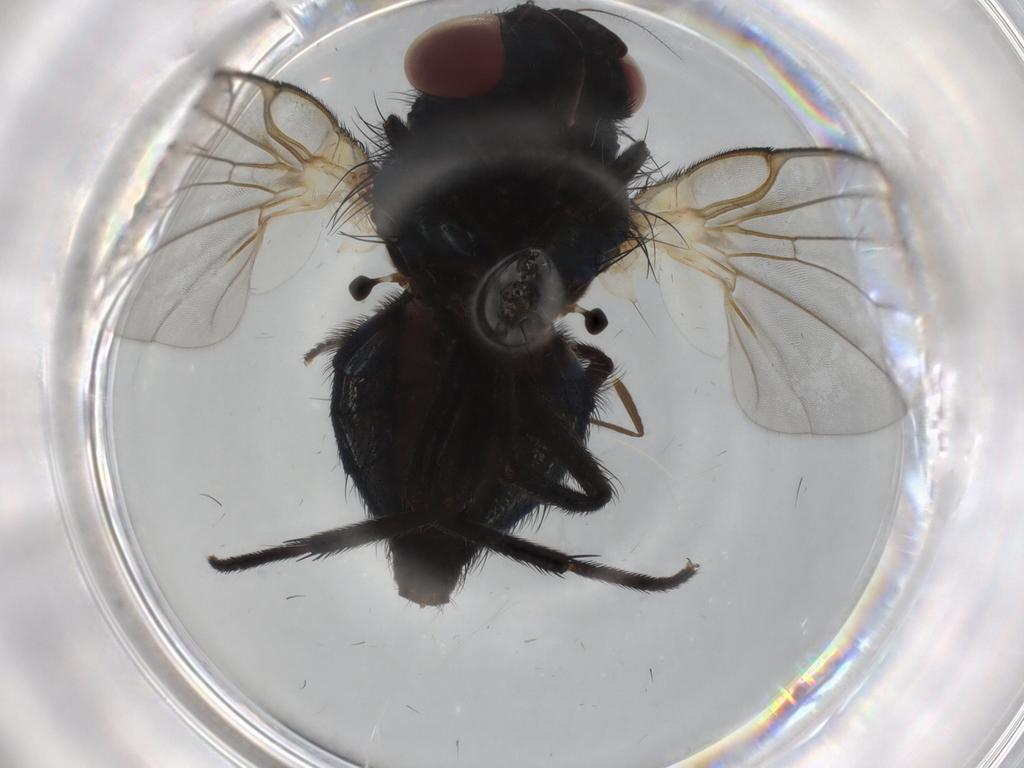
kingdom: Animalia
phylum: Arthropoda
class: Insecta
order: Diptera
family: Lonchaeidae
